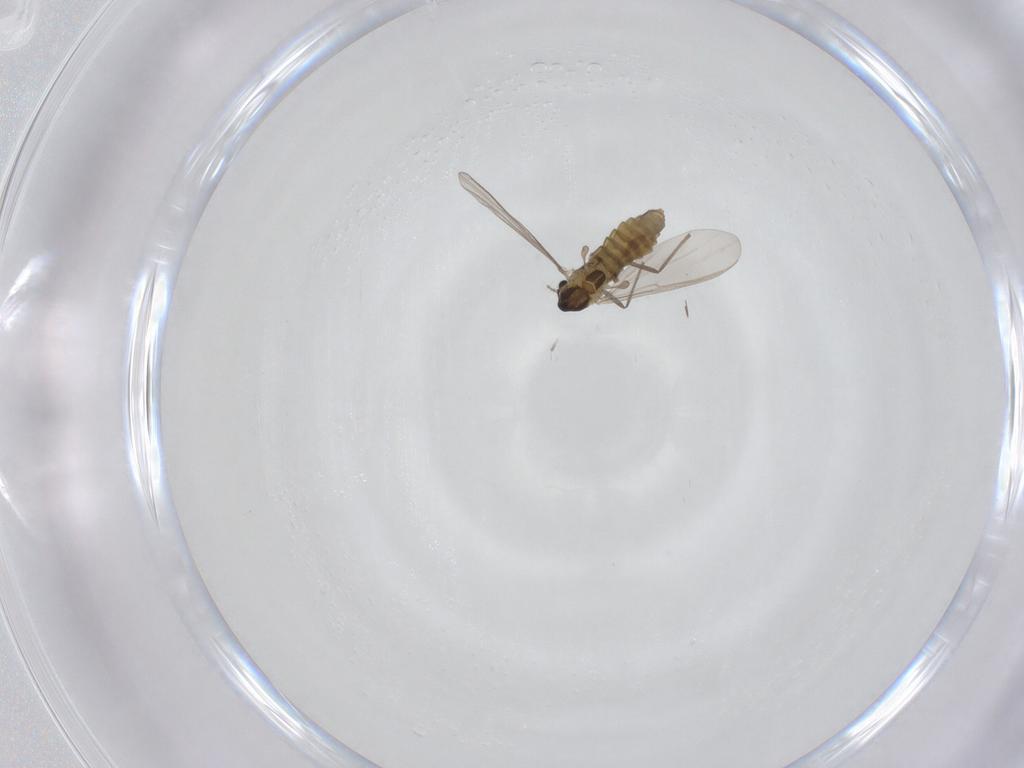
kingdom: Animalia
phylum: Arthropoda
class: Insecta
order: Diptera
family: Chironomidae
